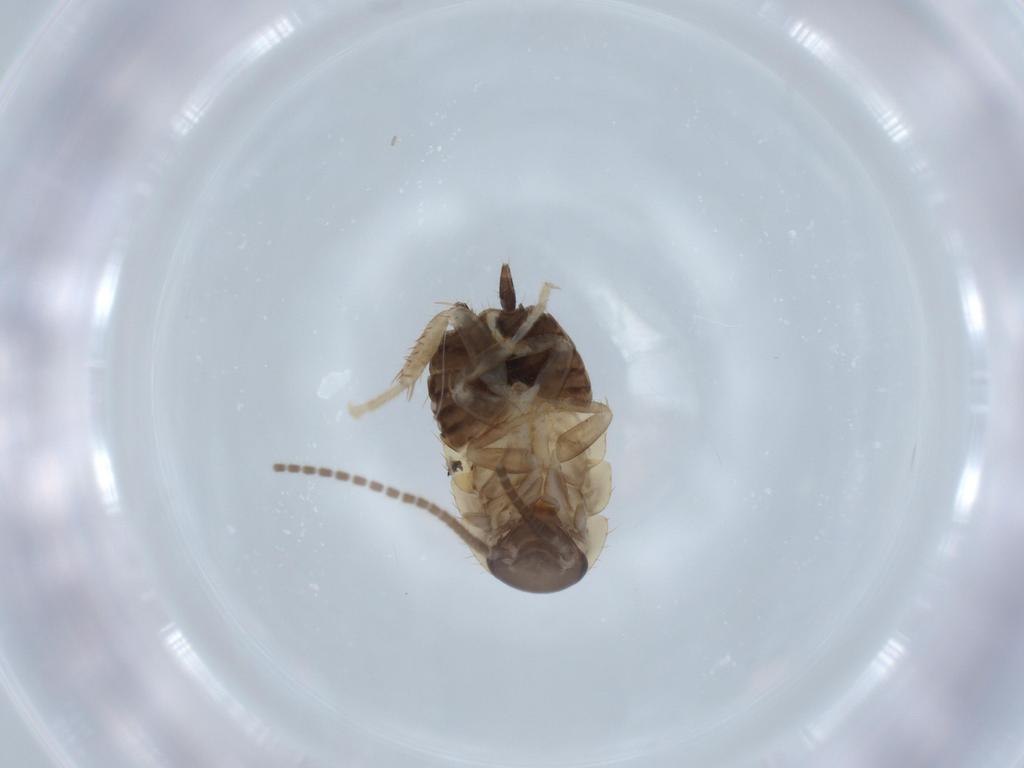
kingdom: Animalia
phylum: Arthropoda
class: Insecta
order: Blattodea
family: Ectobiidae
